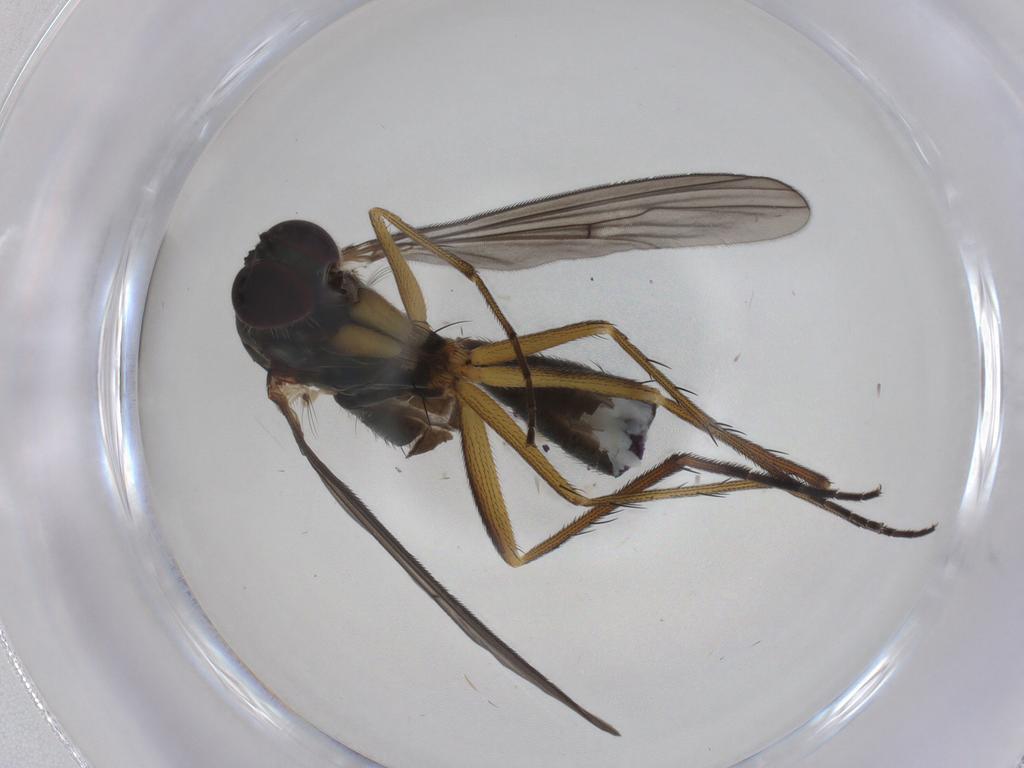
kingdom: Animalia
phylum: Arthropoda
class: Insecta
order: Diptera
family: Dolichopodidae
